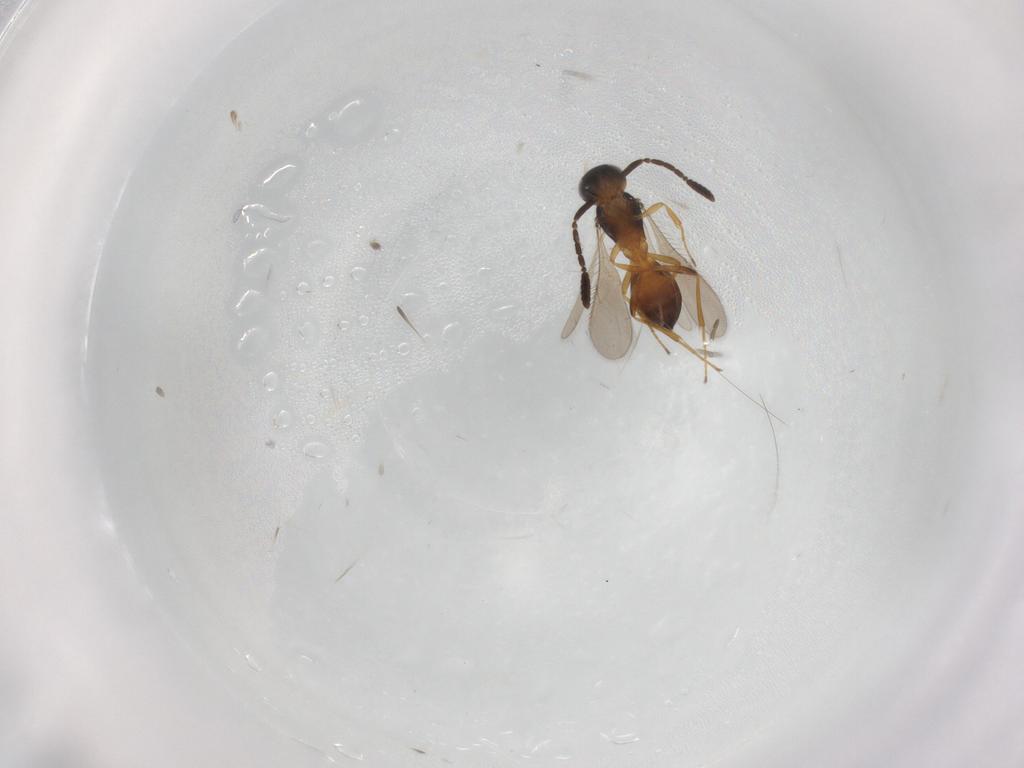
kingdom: Animalia
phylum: Arthropoda
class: Insecta
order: Hymenoptera
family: Scelionidae
